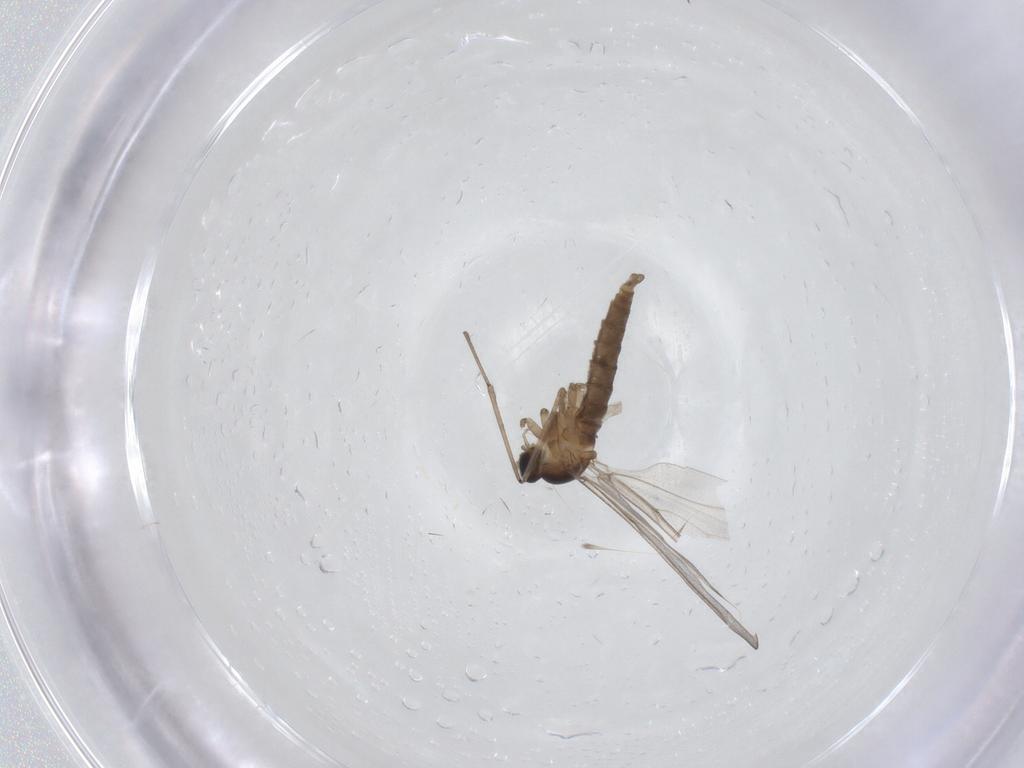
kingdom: Animalia
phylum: Arthropoda
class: Insecta
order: Diptera
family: Cecidomyiidae
